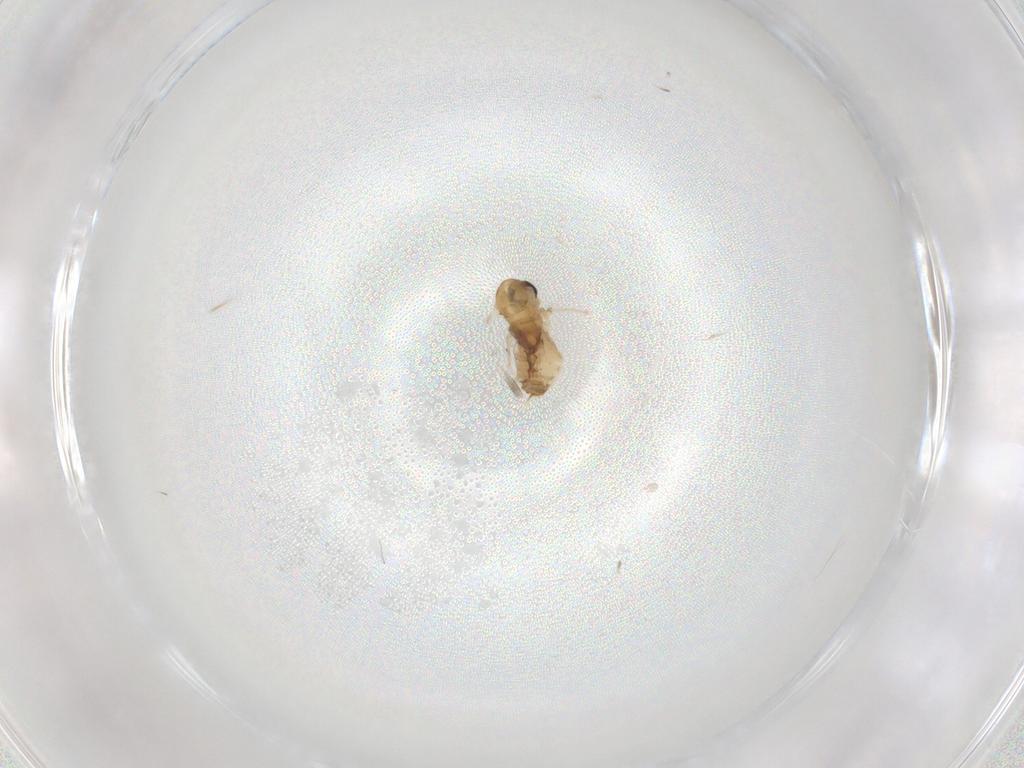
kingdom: Animalia
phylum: Arthropoda
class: Insecta
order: Diptera
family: Psychodidae
